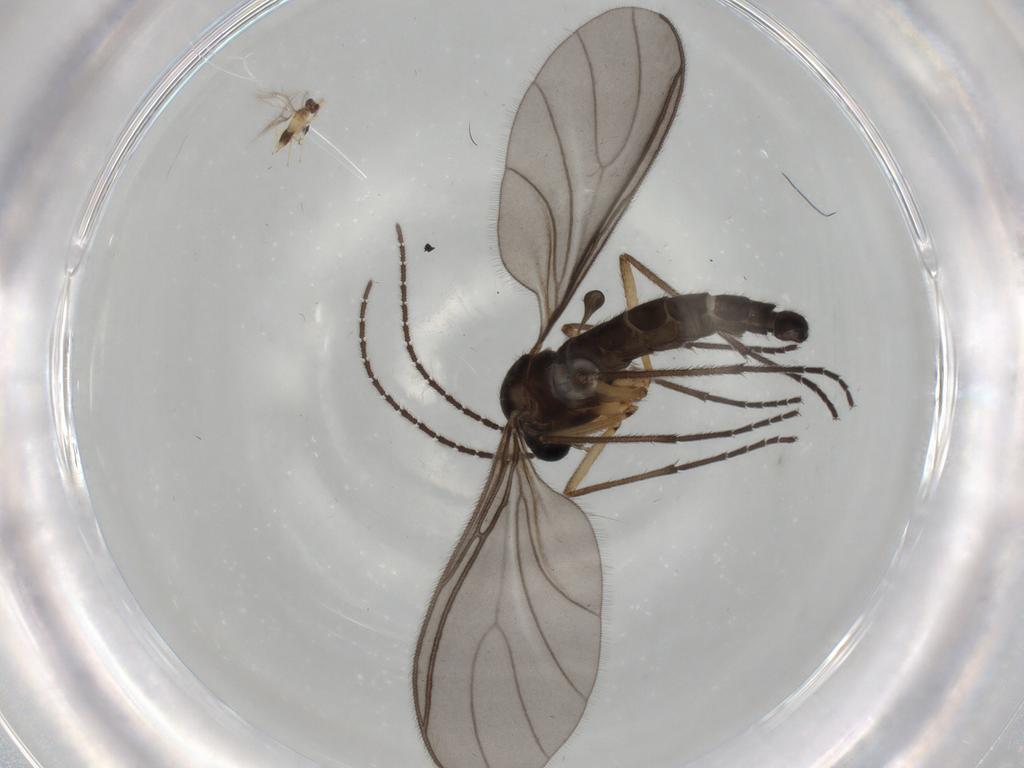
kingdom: Animalia
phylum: Arthropoda
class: Insecta
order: Diptera
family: Sciaridae
